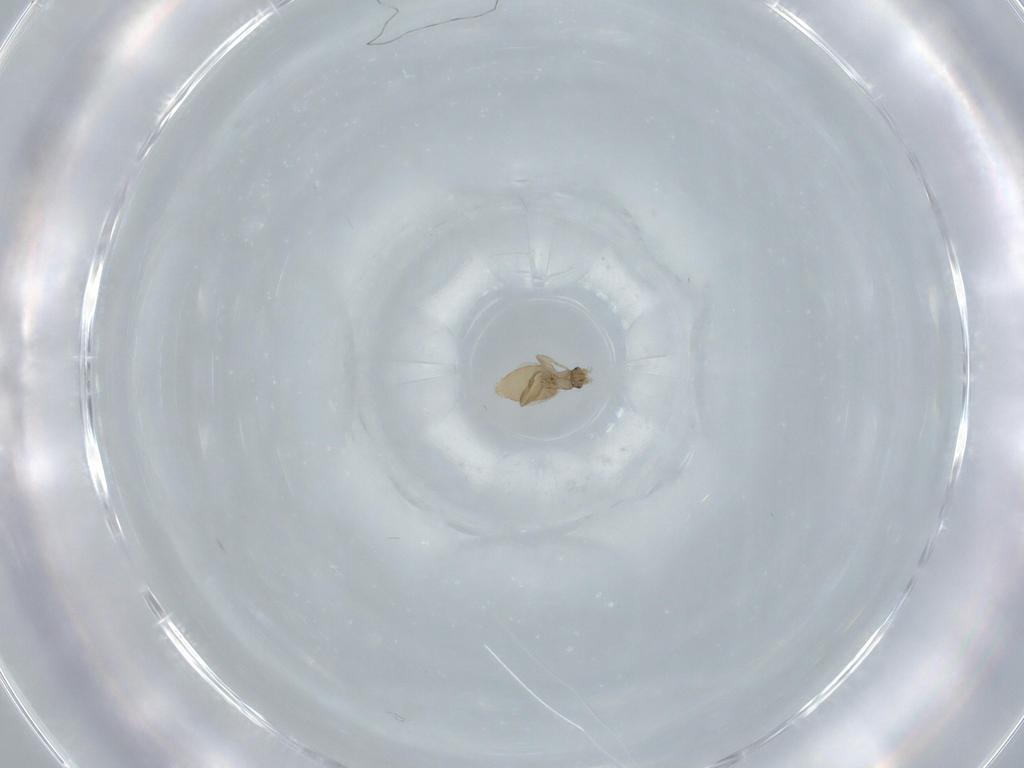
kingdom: Animalia
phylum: Arthropoda
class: Insecta
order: Diptera
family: Phoridae
